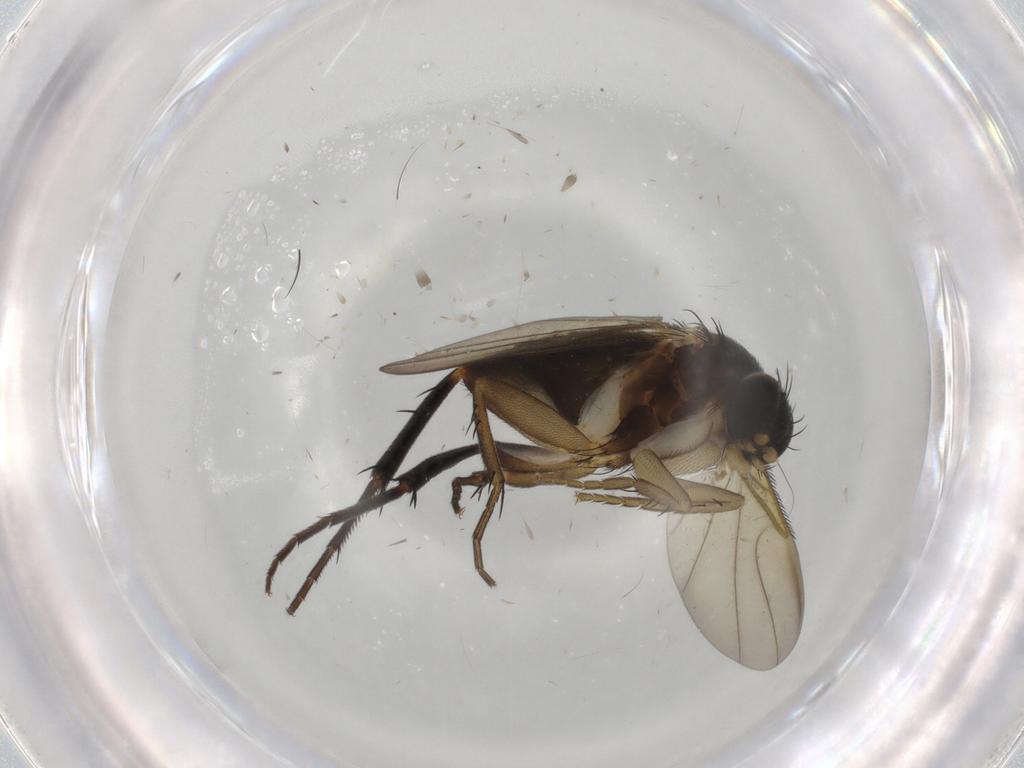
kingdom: Animalia
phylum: Arthropoda
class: Insecta
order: Diptera
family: Phoridae
